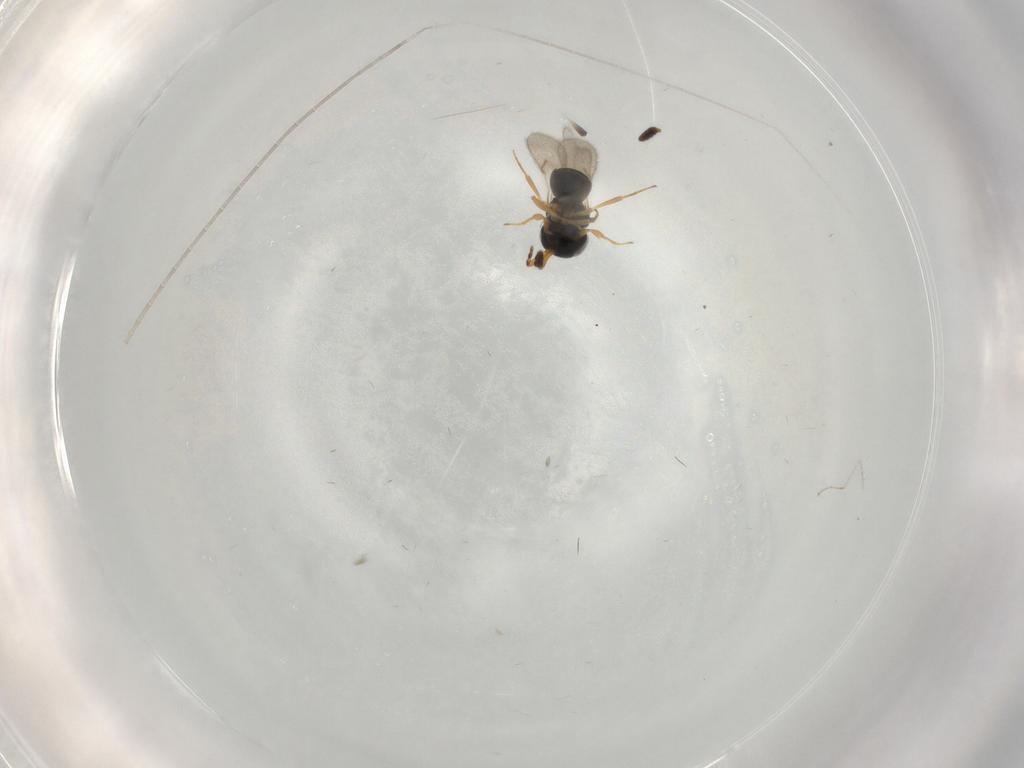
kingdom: Animalia
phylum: Arthropoda
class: Insecta
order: Hymenoptera
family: Scelionidae
